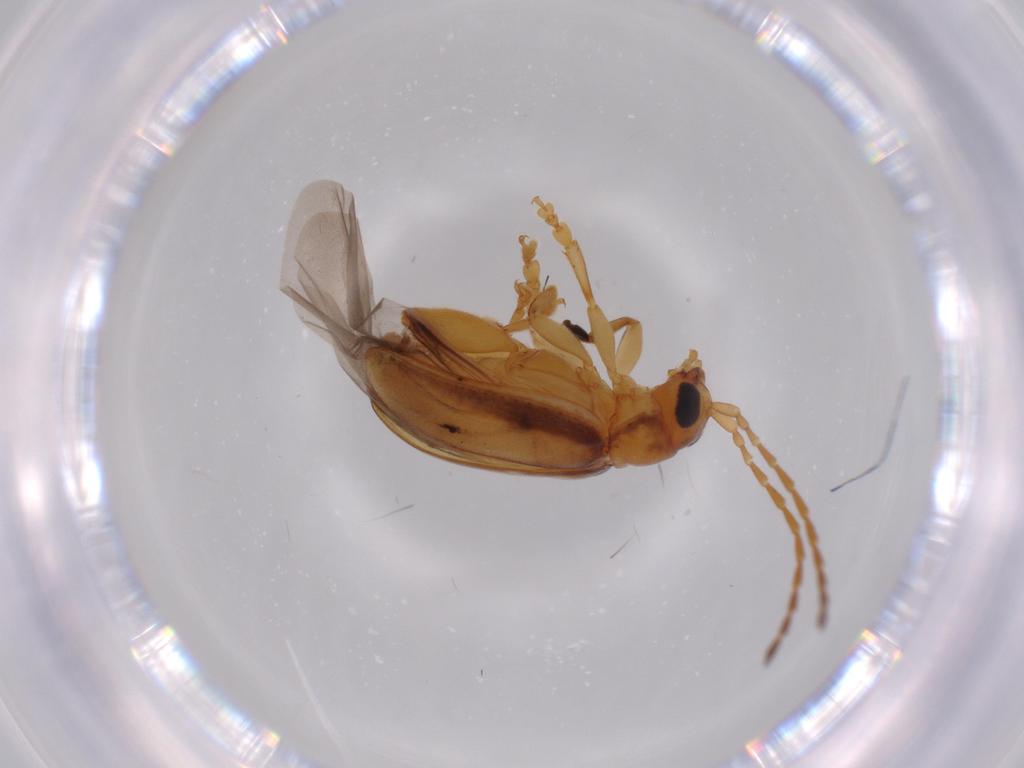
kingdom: Animalia
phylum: Arthropoda
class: Insecta
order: Coleoptera
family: Chrysomelidae
